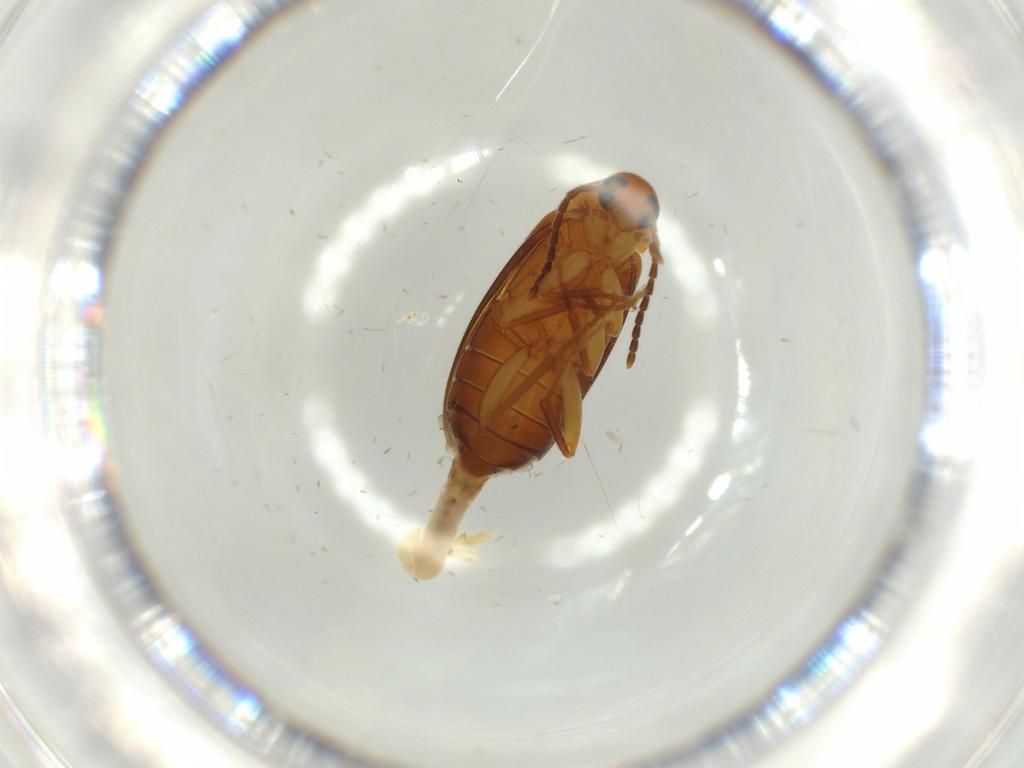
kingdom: Animalia
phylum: Arthropoda
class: Insecta
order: Coleoptera
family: Scraptiidae
